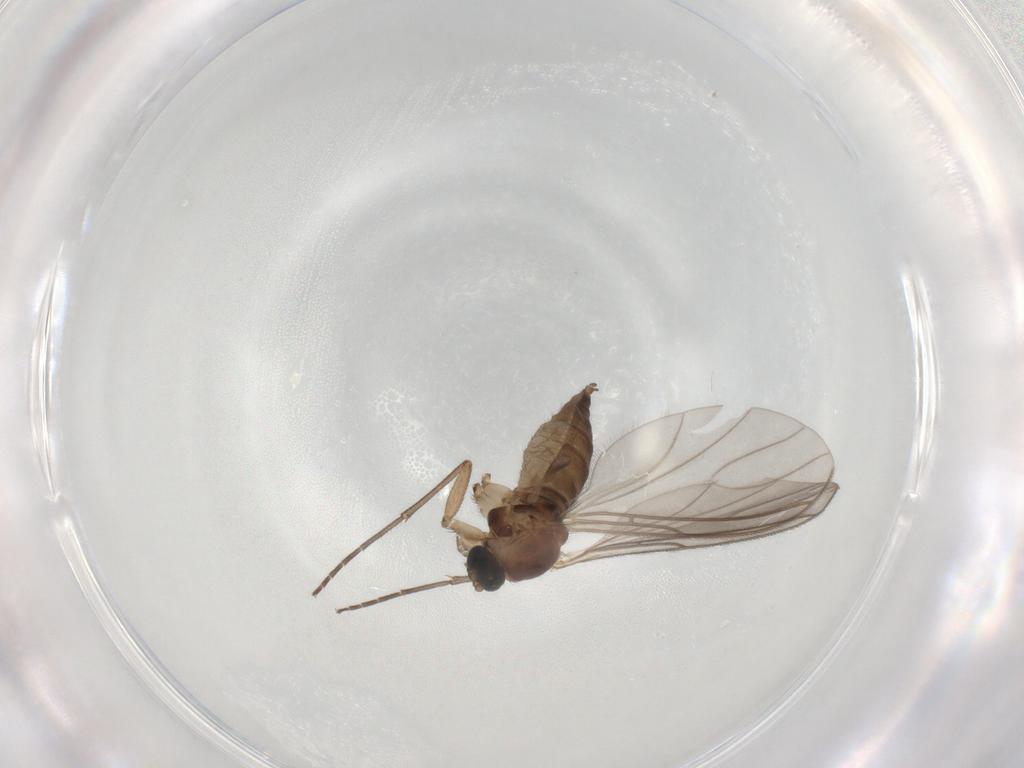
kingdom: Animalia
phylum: Arthropoda
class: Insecta
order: Diptera
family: Sciaridae
